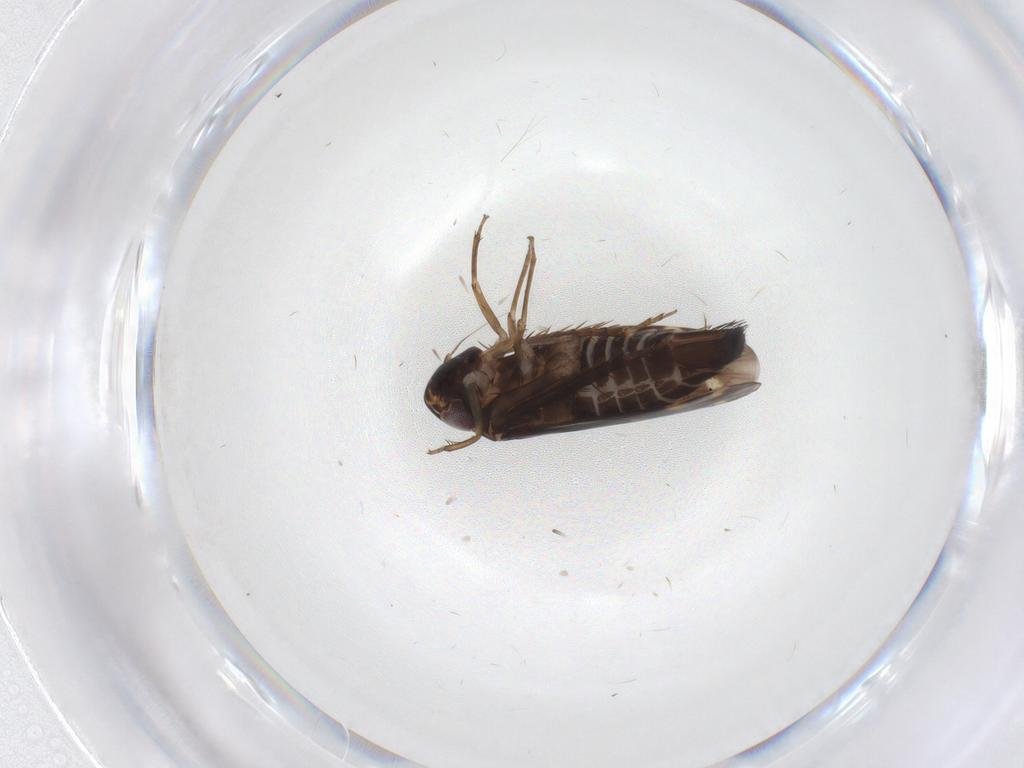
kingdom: Animalia
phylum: Arthropoda
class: Insecta
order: Hemiptera
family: Cicadellidae
